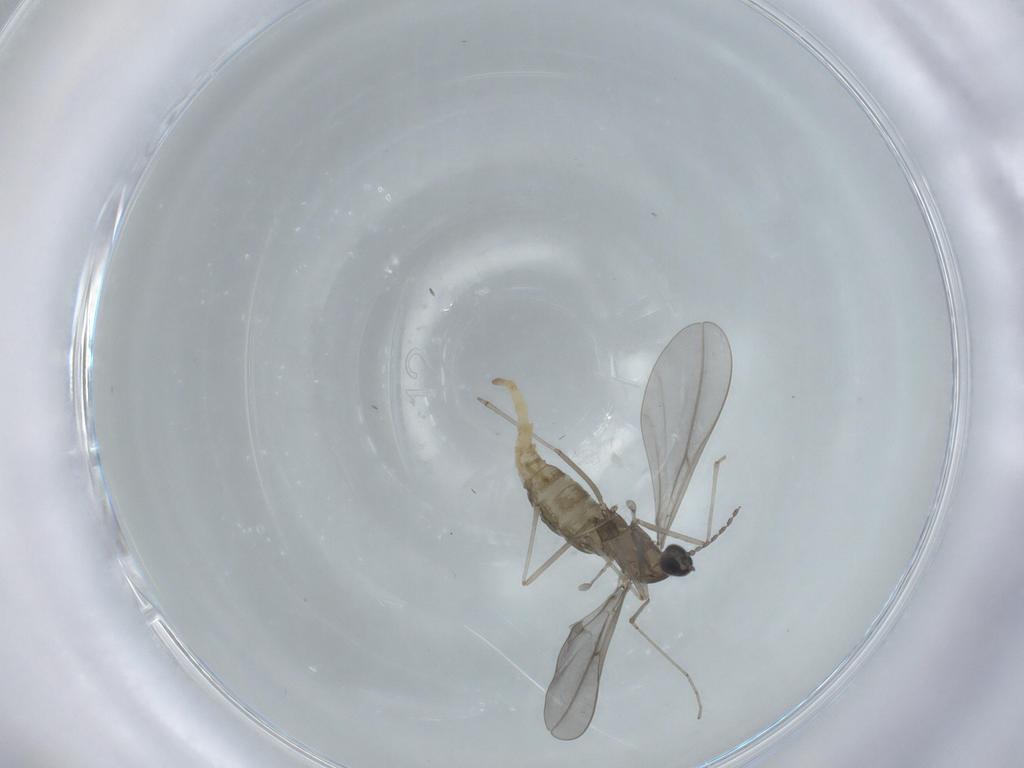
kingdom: Animalia
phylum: Arthropoda
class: Insecta
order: Diptera
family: Cecidomyiidae
